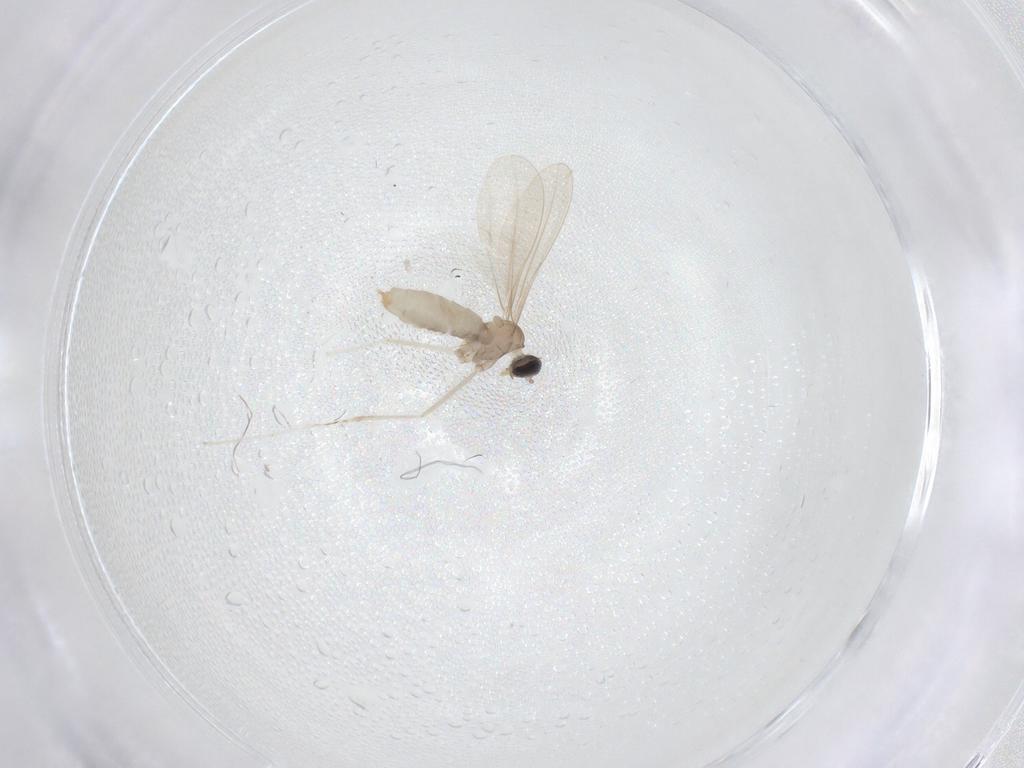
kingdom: Animalia
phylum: Arthropoda
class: Insecta
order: Diptera
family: Cecidomyiidae
